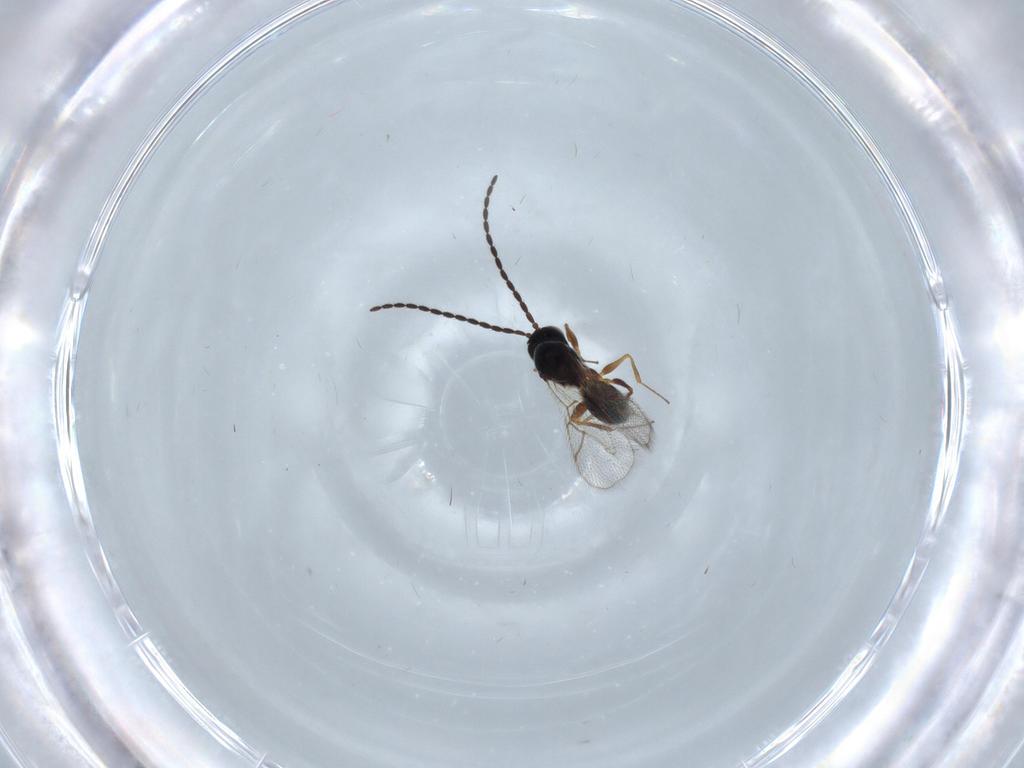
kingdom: Animalia
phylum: Arthropoda
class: Insecta
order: Hymenoptera
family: Figitidae
